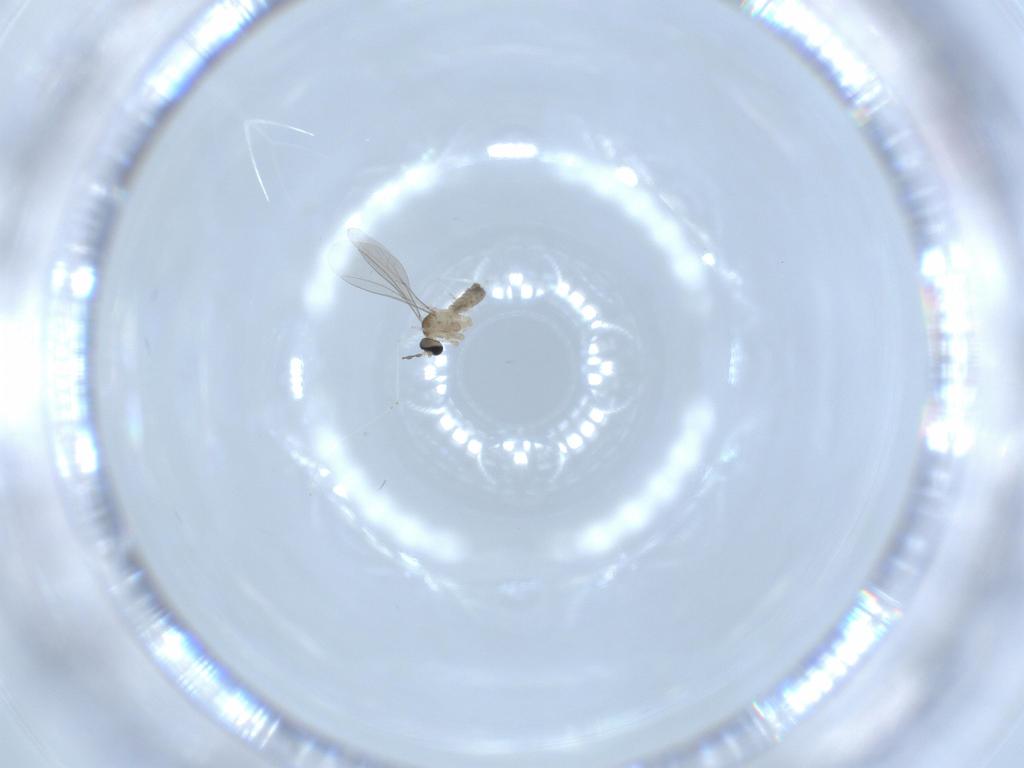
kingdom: Animalia
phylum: Arthropoda
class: Insecta
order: Diptera
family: Cecidomyiidae
